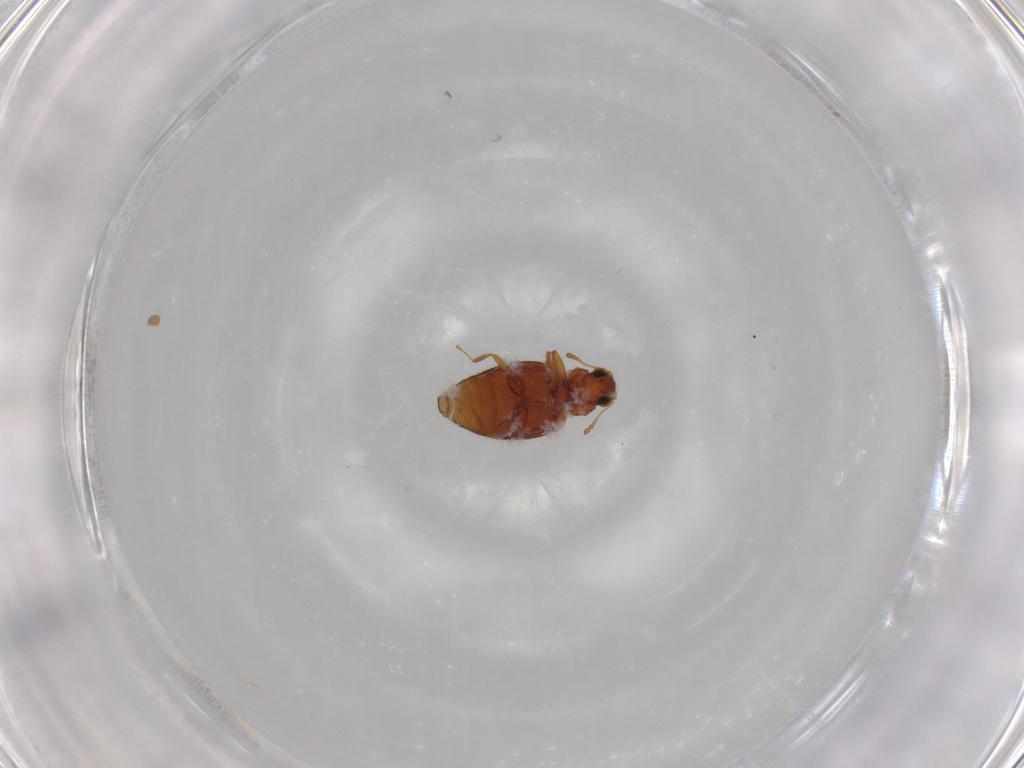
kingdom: Animalia
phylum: Arthropoda
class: Insecta
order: Coleoptera
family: Latridiidae
